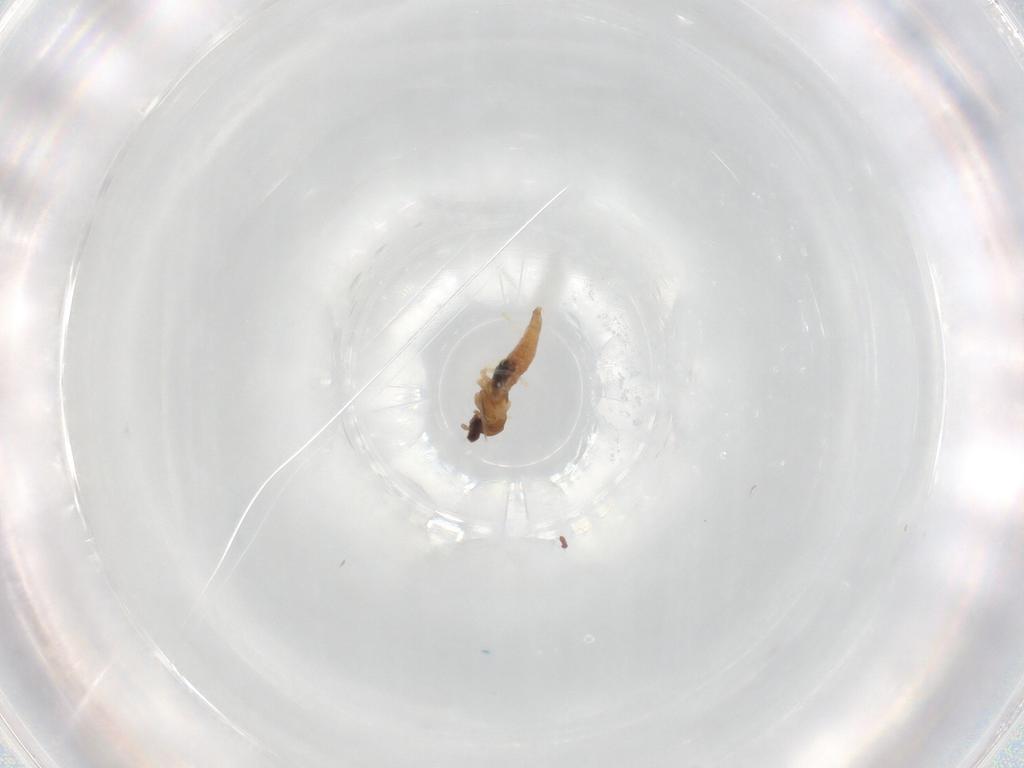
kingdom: Animalia
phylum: Arthropoda
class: Insecta
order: Diptera
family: Cecidomyiidae
